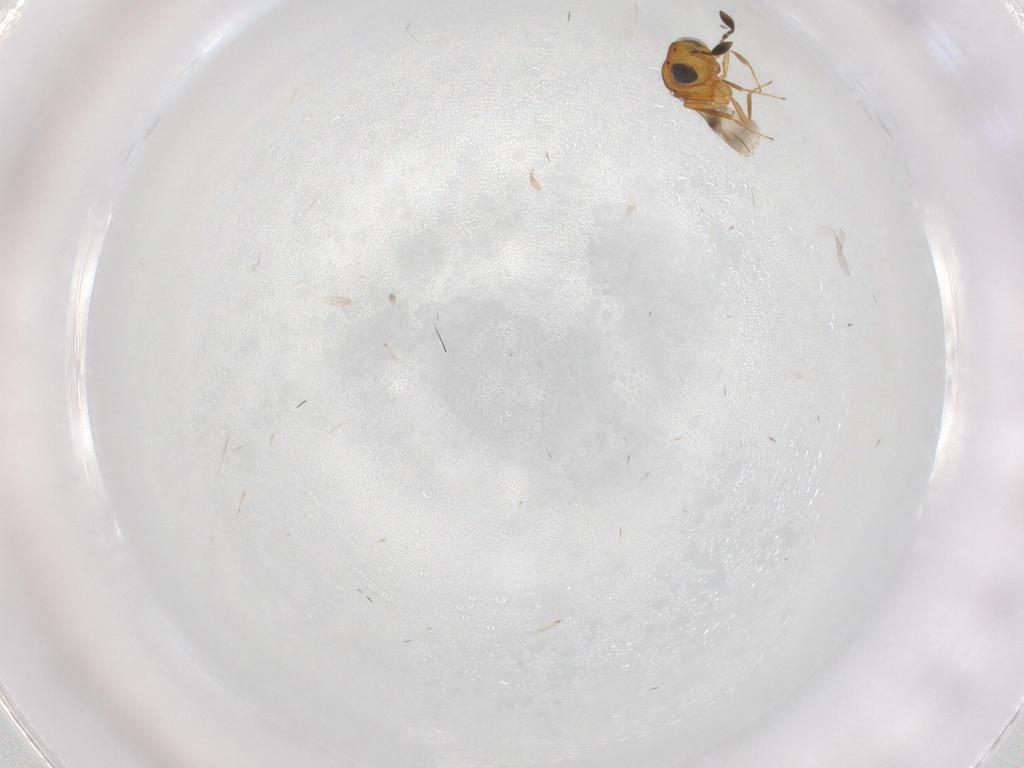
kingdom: Animalia
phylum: Arthropoda
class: Insecta
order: Hymenoptera
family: Scelionidae
